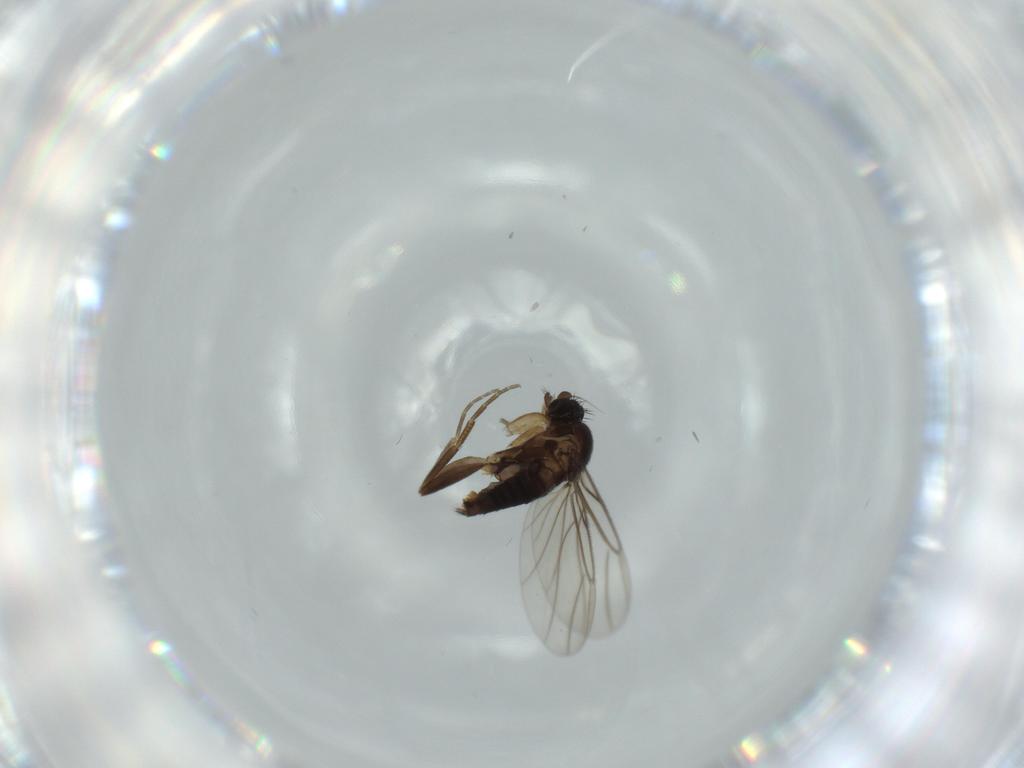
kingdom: Animalia
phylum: Arthropoda
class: Insecta
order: Diptera
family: Phoridae
